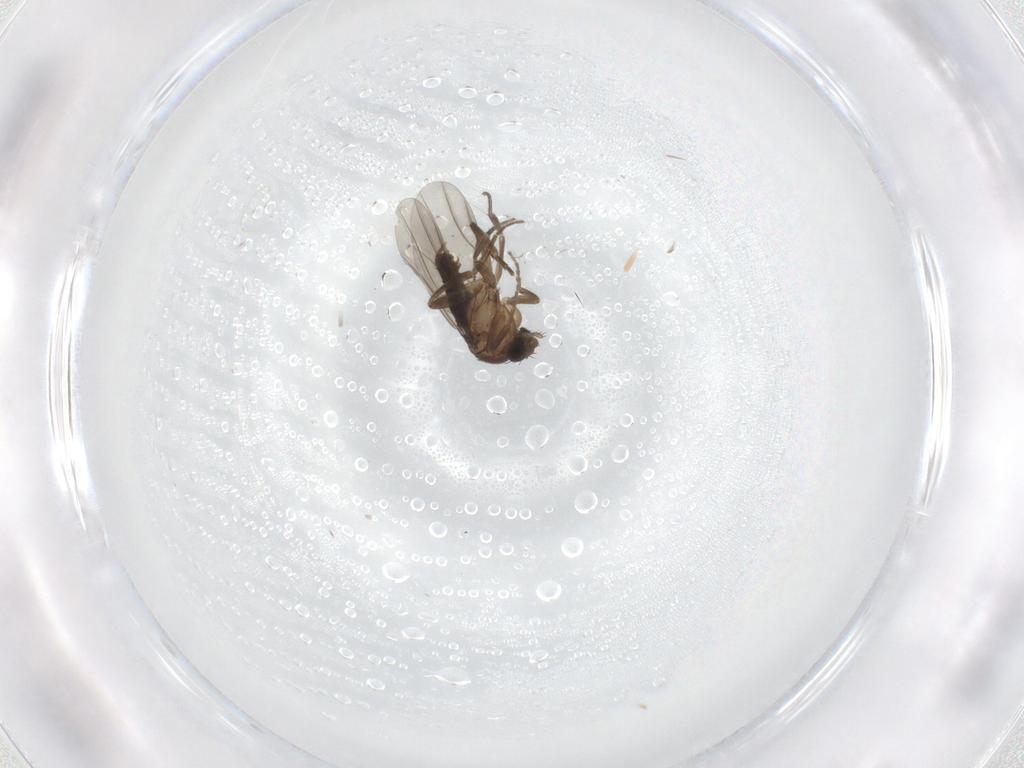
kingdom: Animalia
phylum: Arthropoda
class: Insecta
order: Diptera
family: Phoridae
